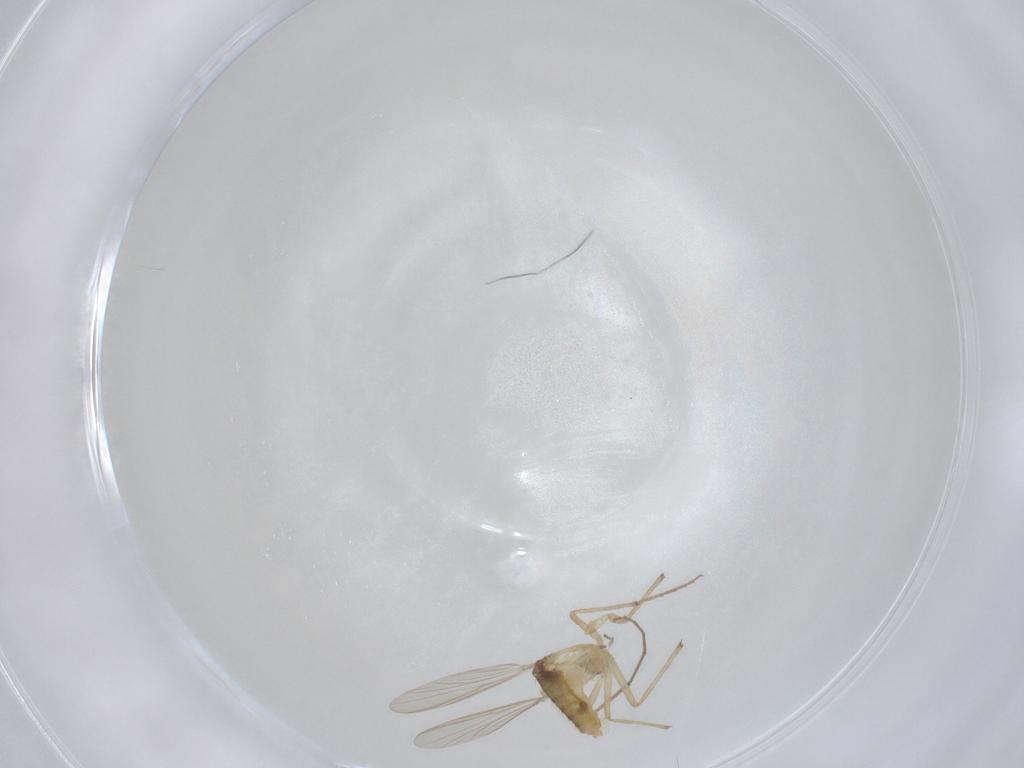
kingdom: Animalia
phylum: Arthropoda
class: Insecta
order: Diptera
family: Chironomidae
